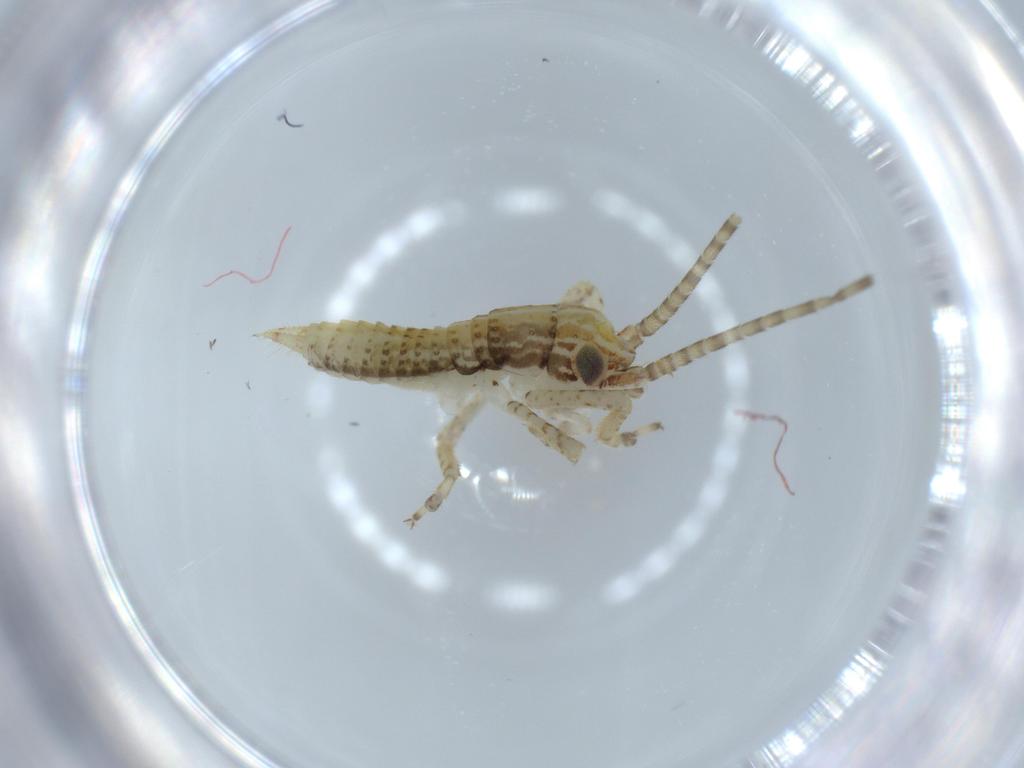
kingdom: Animalia
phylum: Arthropoda
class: Insecta
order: Orthoptera
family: Gryllidae
